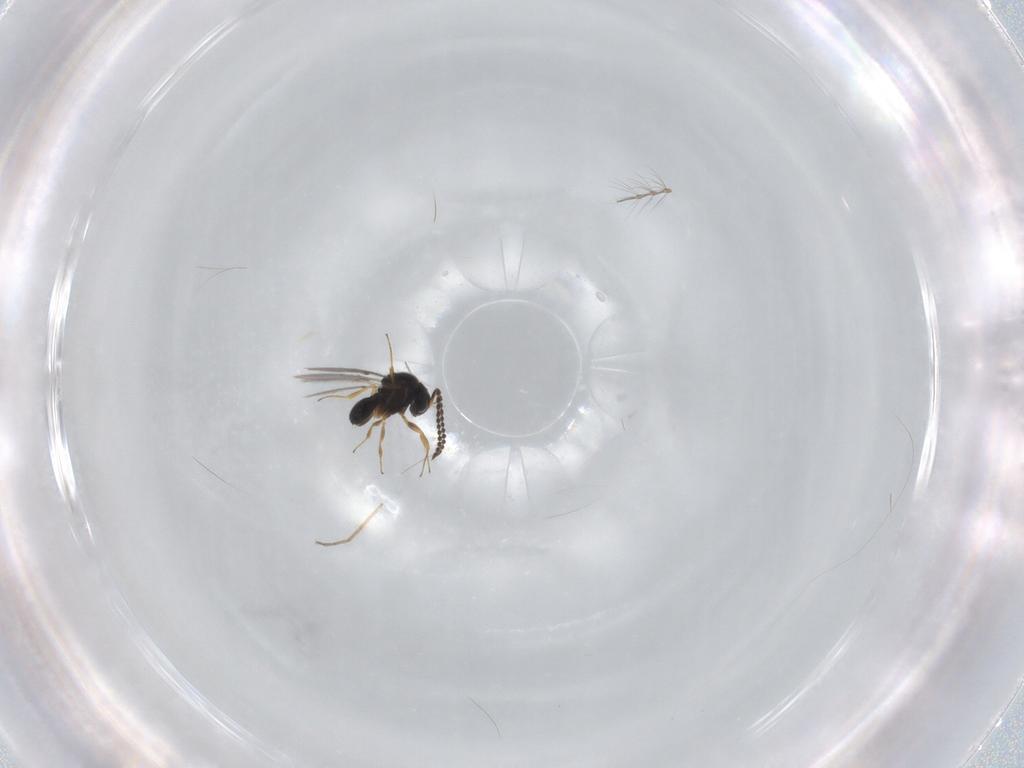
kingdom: Animalia
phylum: Arthropoda
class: Insecta
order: Hymenoptera
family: Scelionidae
